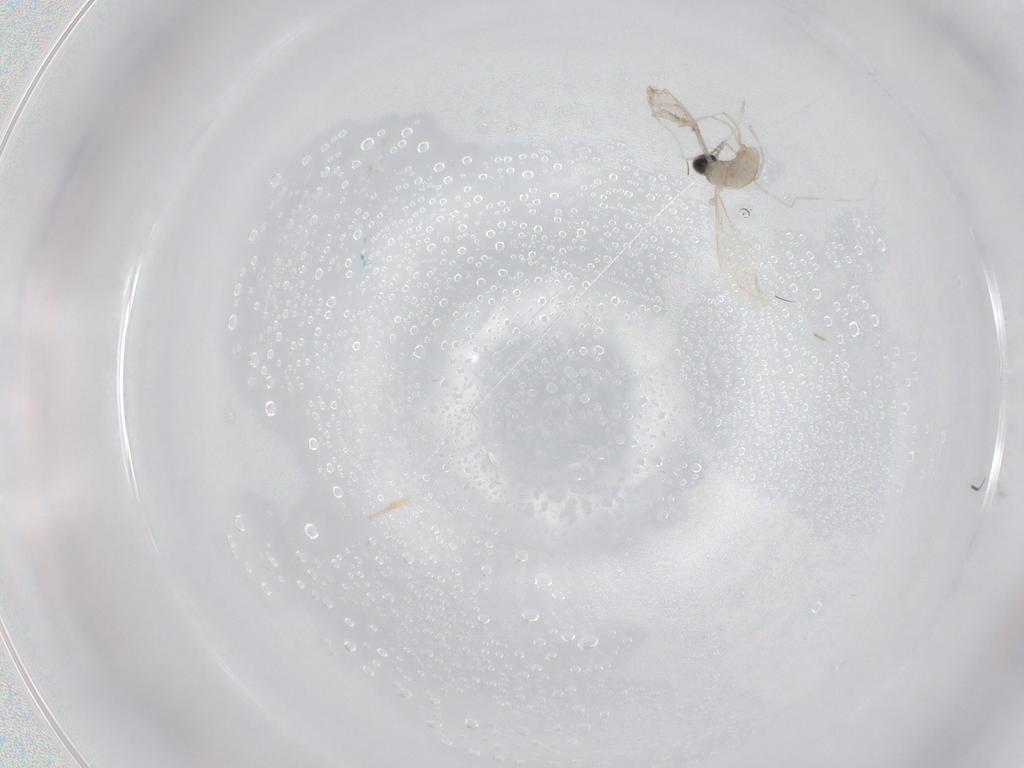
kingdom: Animalia
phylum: Arthropoda
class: Insecta
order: Diptera
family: Phoridae
